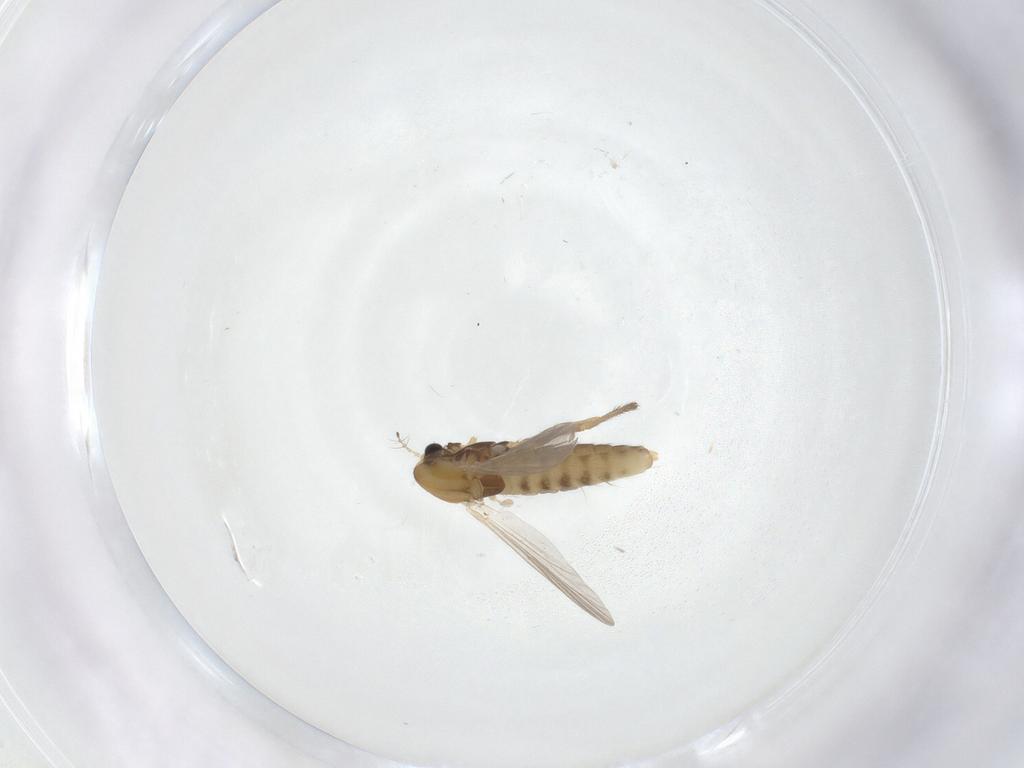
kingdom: Animalia
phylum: Arthropoda
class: Insecta
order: Diptera
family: Chironomidae
